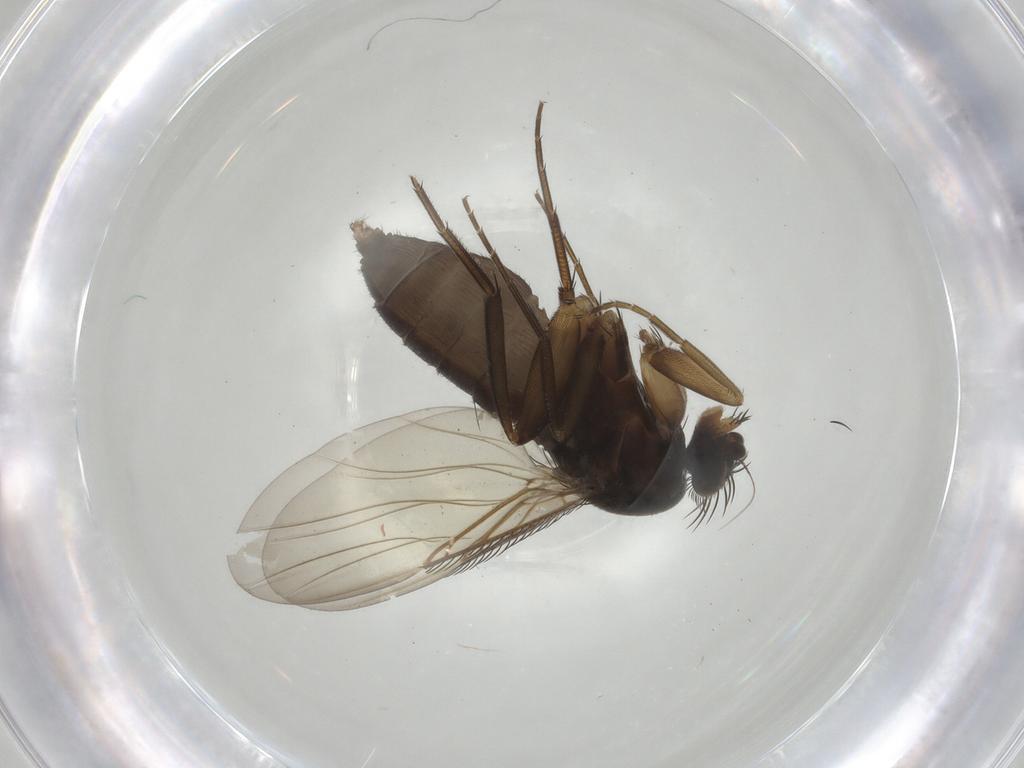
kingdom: Animalia
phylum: Arthropoda
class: Insecta
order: Diptera
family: Phoridae
